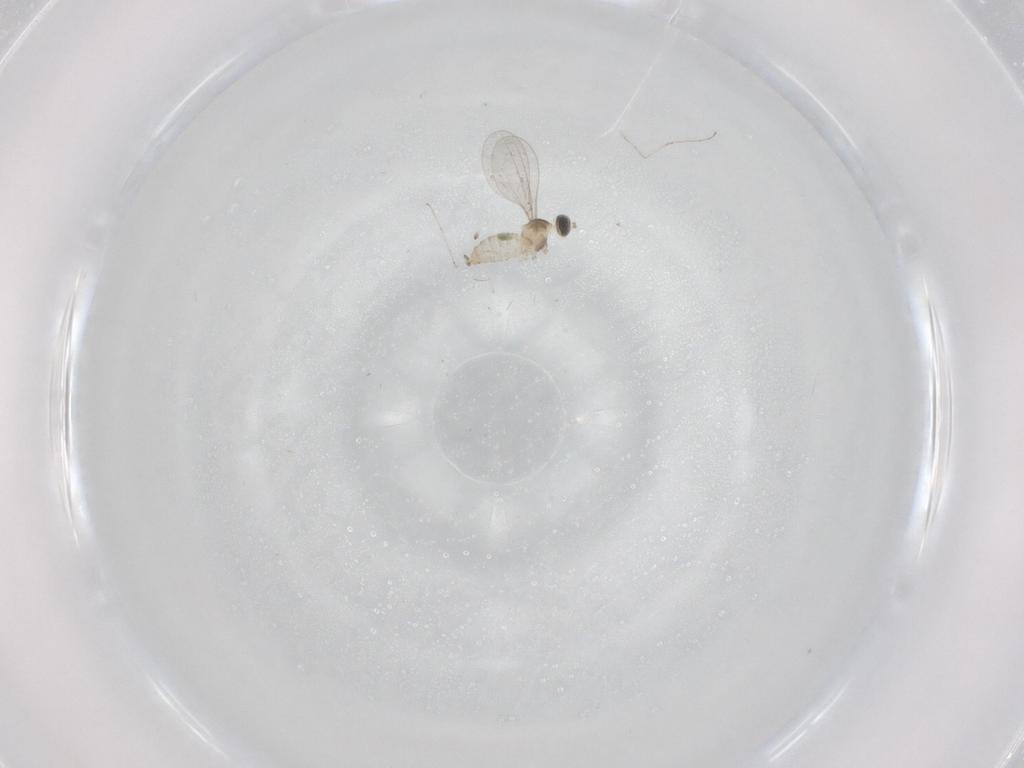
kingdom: Animalia
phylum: Arthropoda
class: Insecta
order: Diptera
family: Cecidomyiidae
